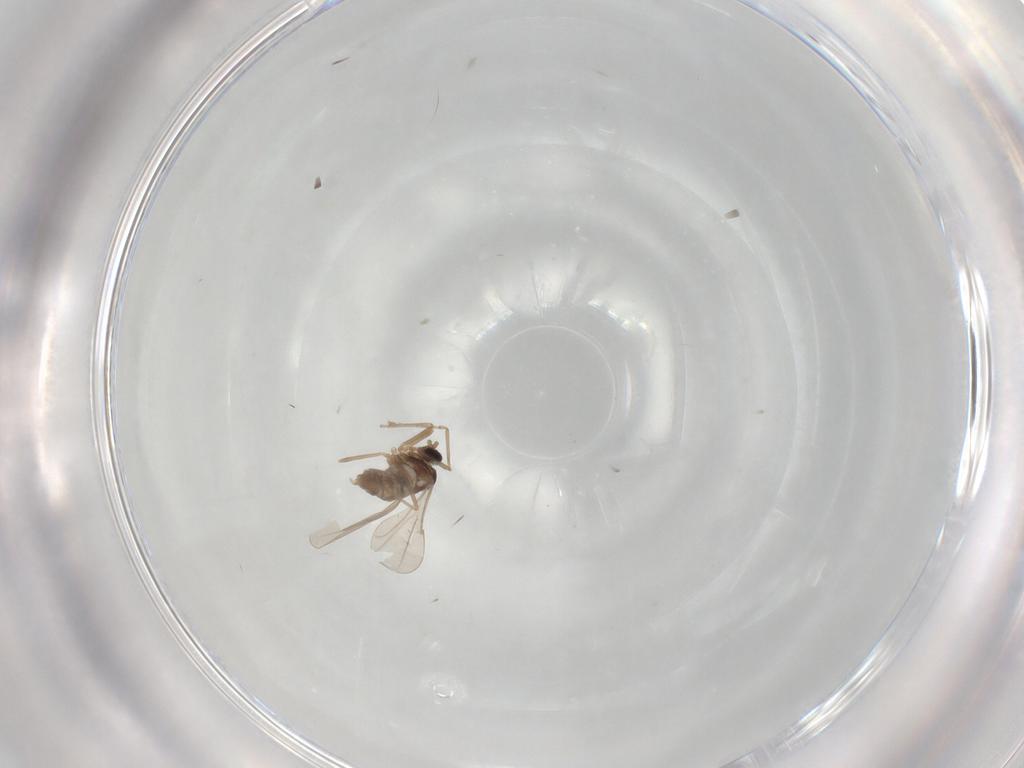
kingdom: Animalia
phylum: Arthropoda
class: Insecta
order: Diptera
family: Cecidomyiidae
